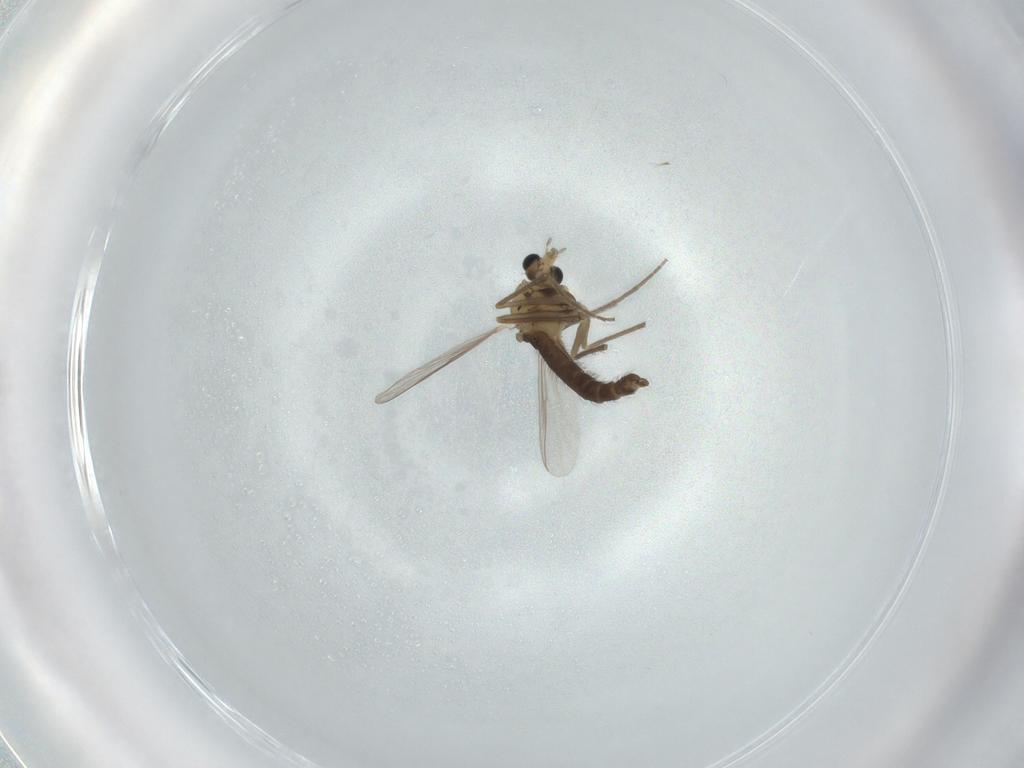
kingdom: Animalia
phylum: Arthropoda
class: Insecta
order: Diptera
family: Chironomidae
